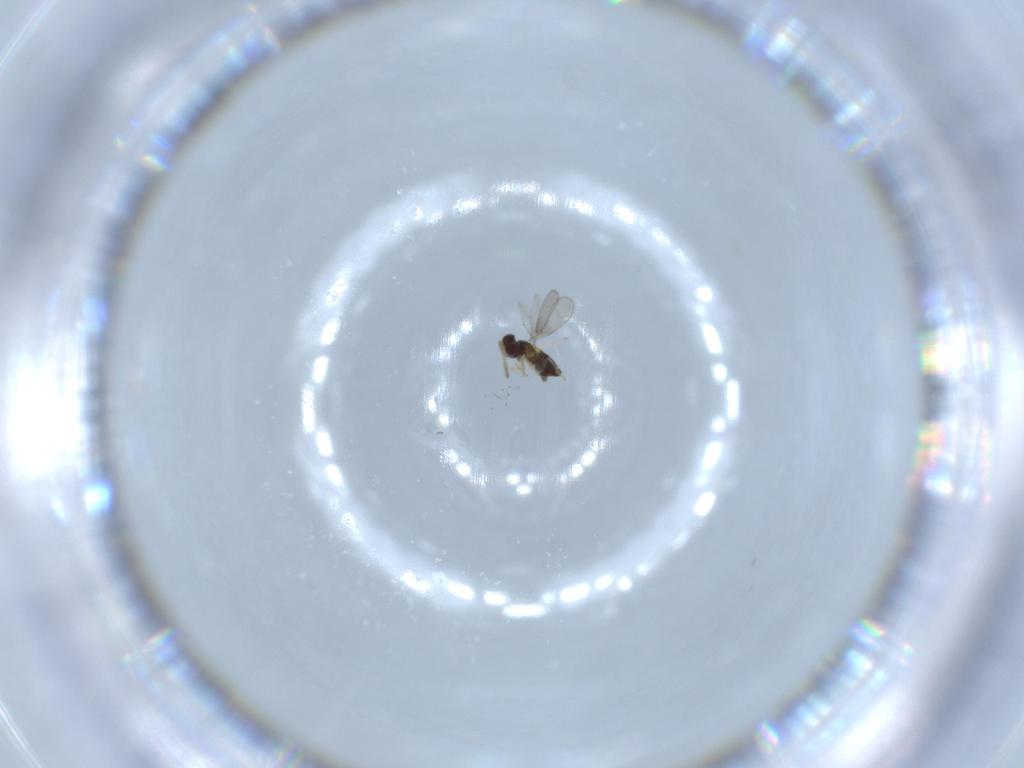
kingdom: Animalia
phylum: Arthropoda
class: Insecta
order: Hymenoptera
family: Aphelinidae
